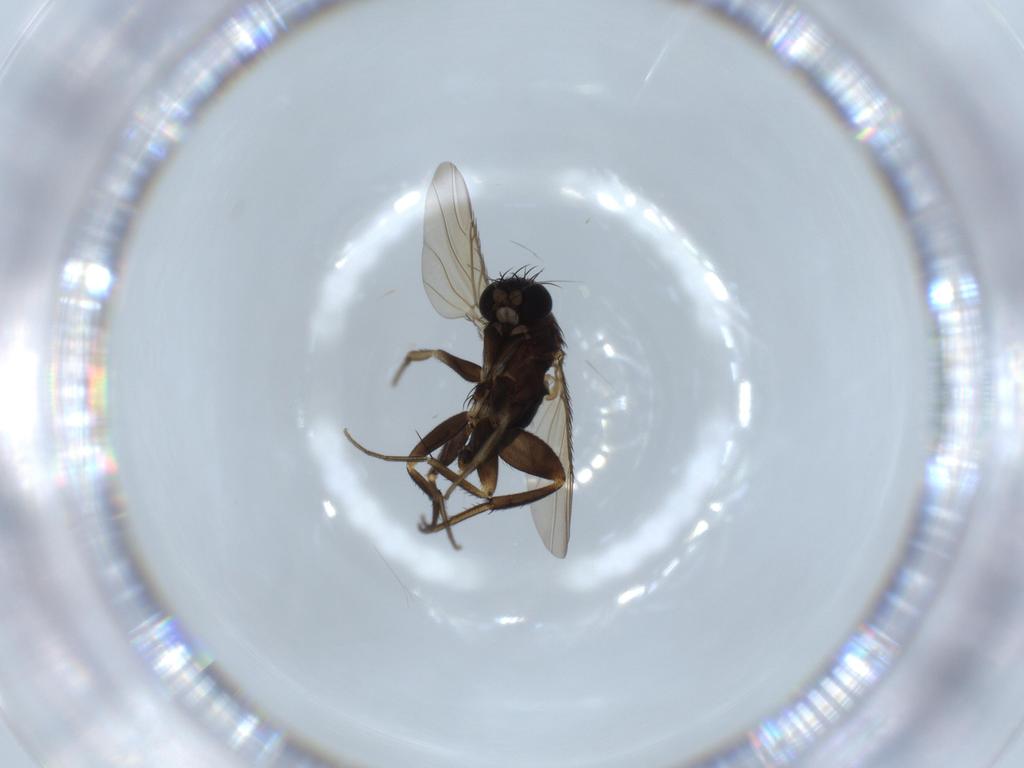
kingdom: Animalia
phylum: Arthropoda
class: Insecta
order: Diptera
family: Phoridae
